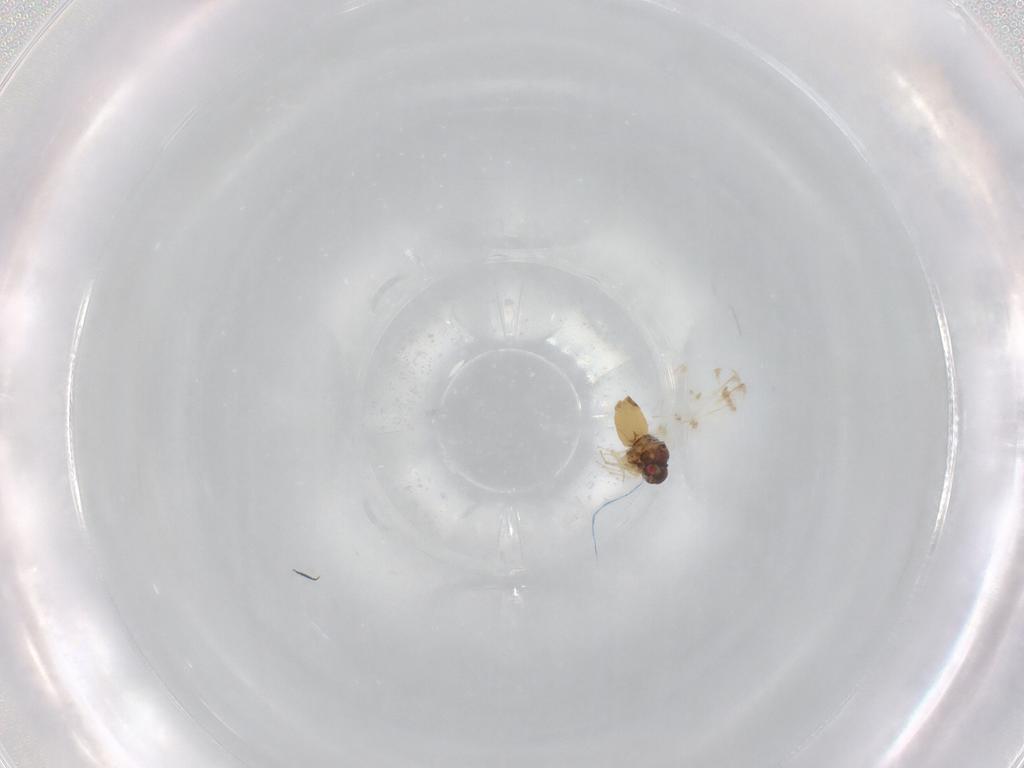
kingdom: Animalia
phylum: Arthropoda
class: Insecta
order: Hemiptera
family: Aleyrodidae
